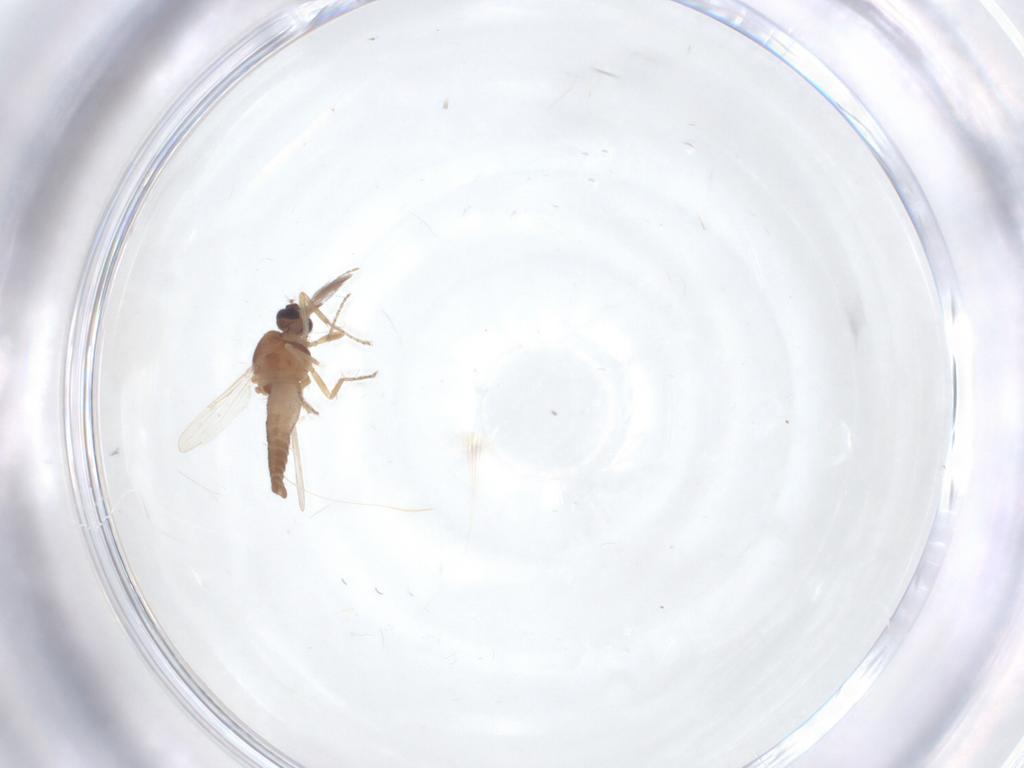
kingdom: Animalia
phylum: Arthropoda
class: Insecta
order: Diptera
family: Ceratopogonidae
